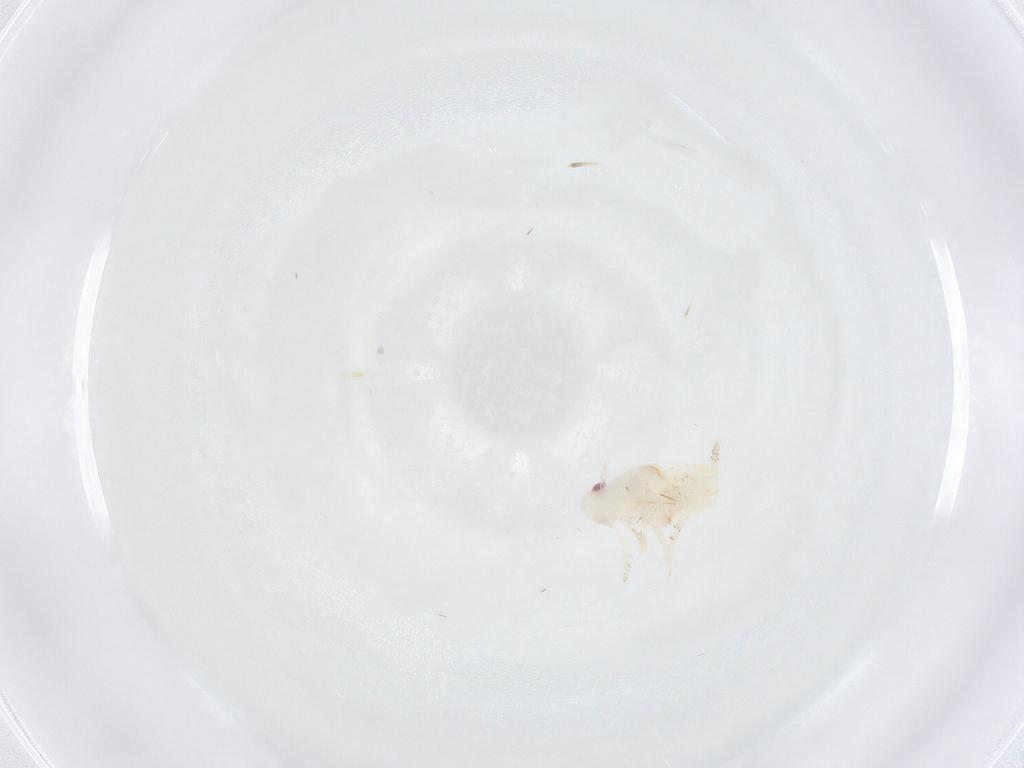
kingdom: Animalia
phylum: Arthropoda
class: Insecta
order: Hemiptera
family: Flatidae
